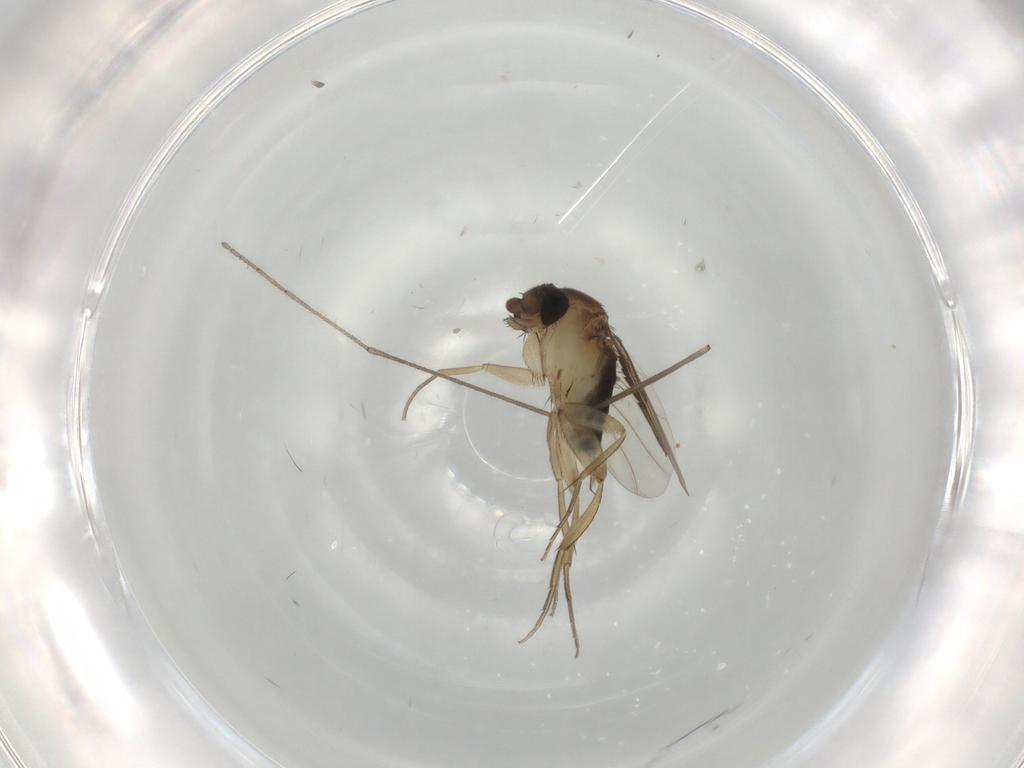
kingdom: Animalia
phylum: Arthropoda
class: Insecta
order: Diptera
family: Phoridae
